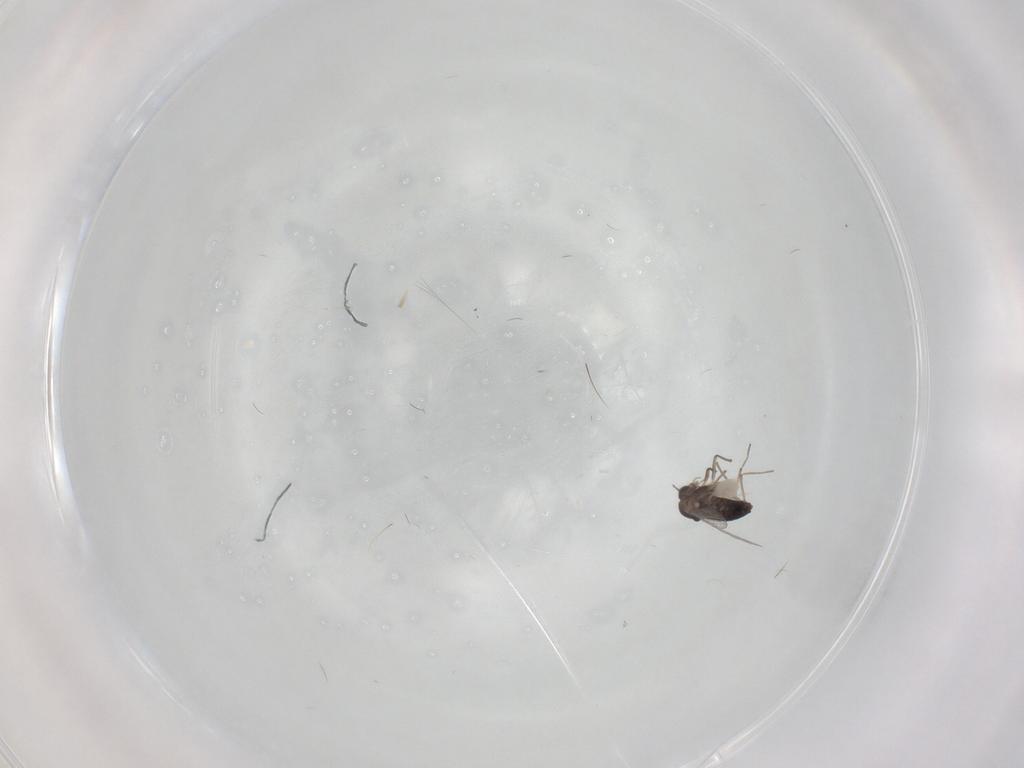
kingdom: Animalia
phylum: Arthropoda
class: Insecta
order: Diptera
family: Chironomidae
